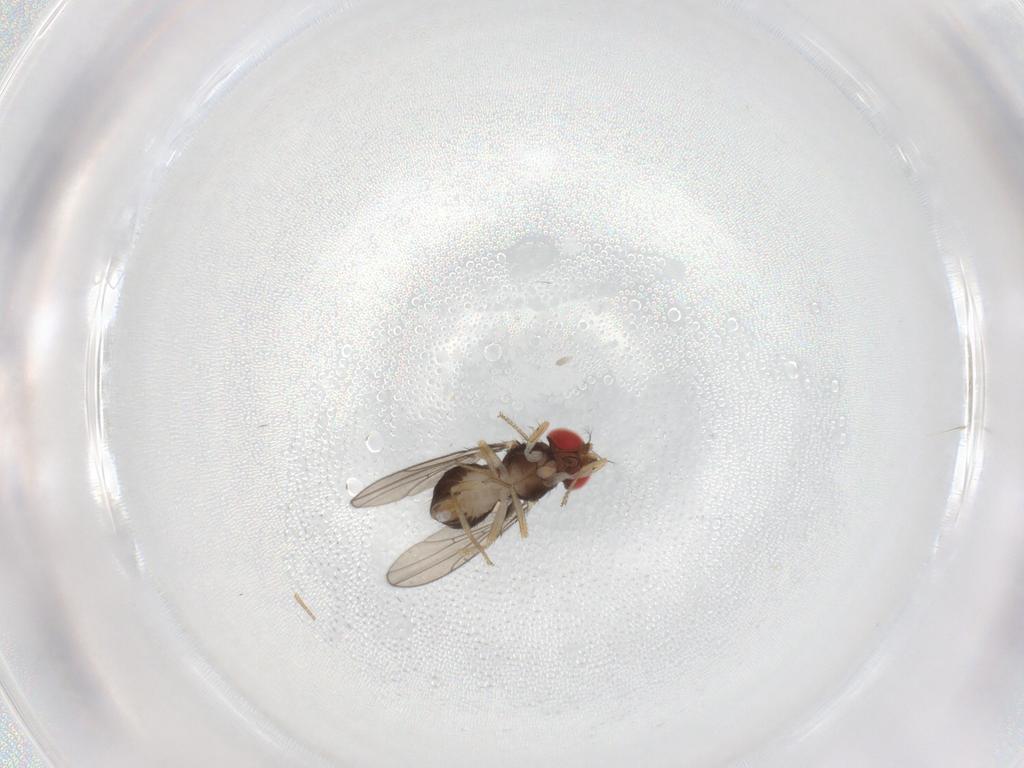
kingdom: Animalia
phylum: Arthropoda
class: Insecta
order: Diptera
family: Drosophilidae
